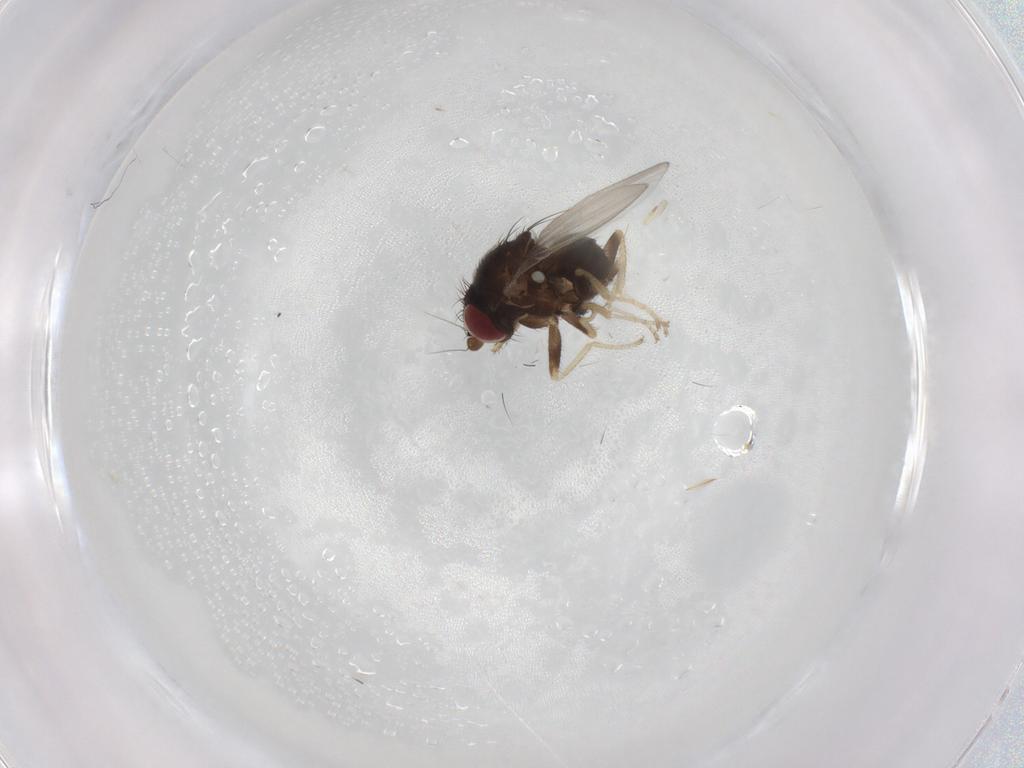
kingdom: Animalia
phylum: Arthropoda
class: Insecta
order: Diptera
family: Milichiidae
